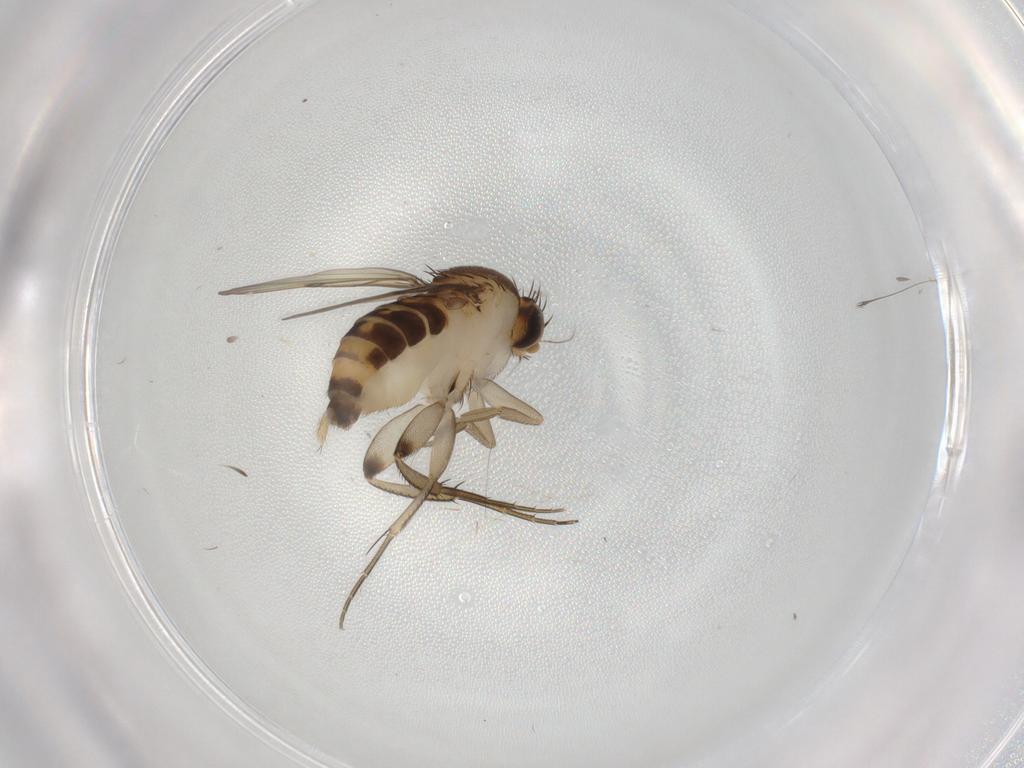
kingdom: Animalia
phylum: Arthropoda
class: Insecta
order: Diptera
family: Phoridae
